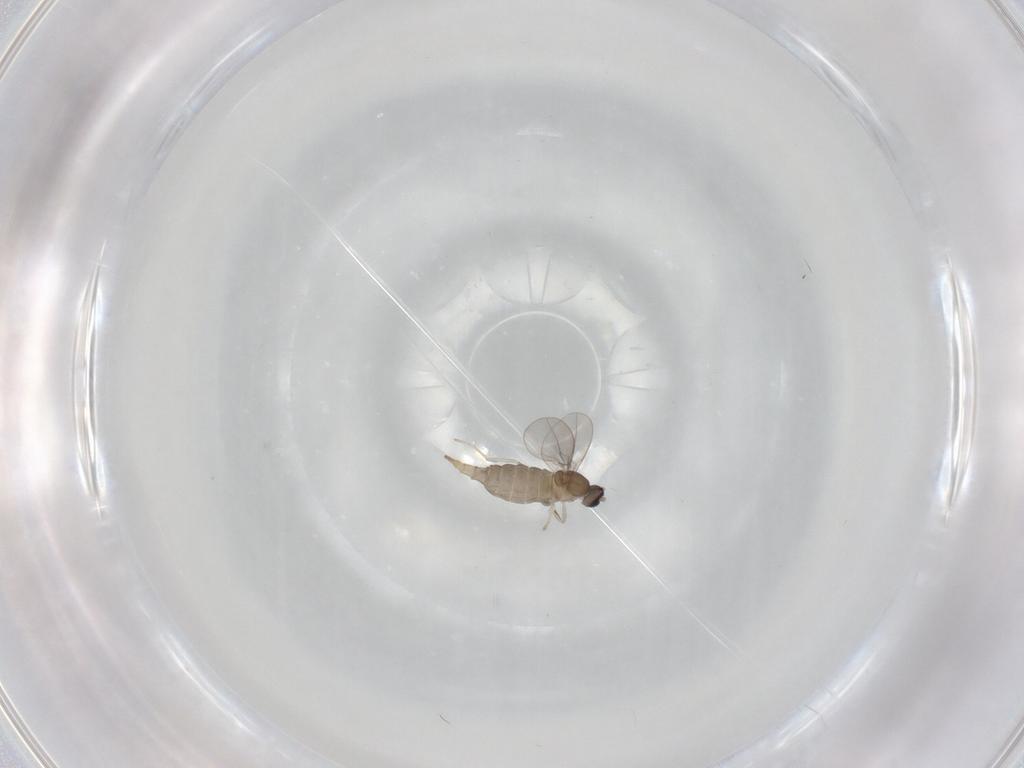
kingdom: Animalia
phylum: Arthropoda
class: Insecta
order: Diptera
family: Cecidomyiidae
